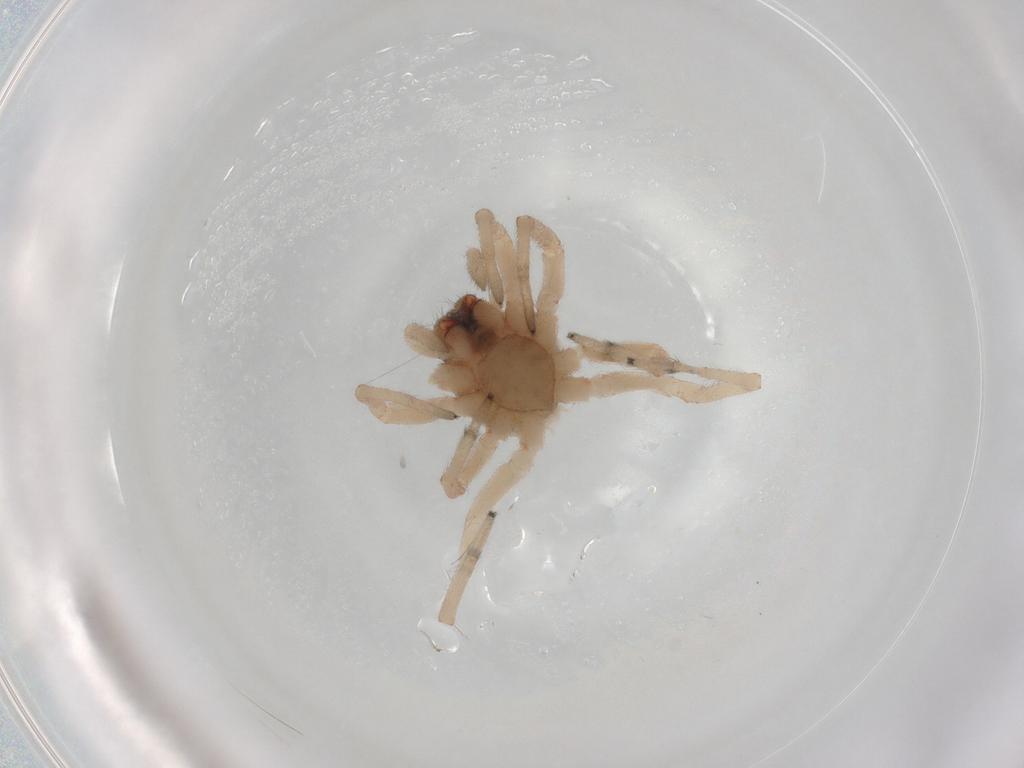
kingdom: Animalia
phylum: Arthropoda
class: Arachnida
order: Araneae
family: Trachelidae
